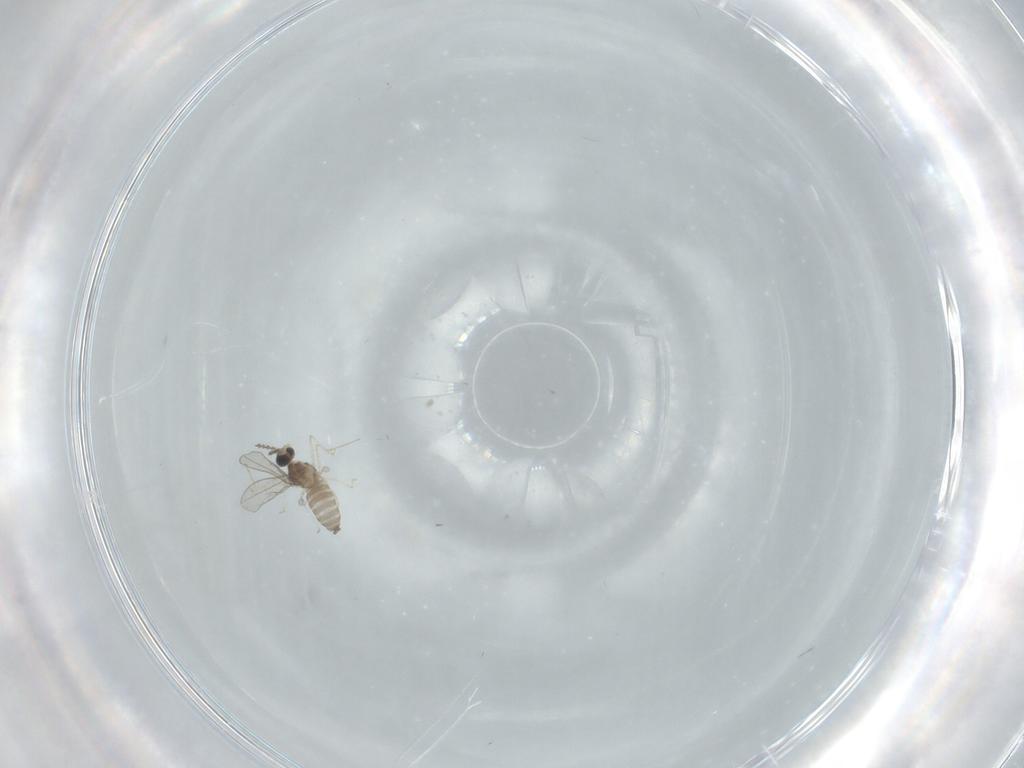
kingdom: Animalia
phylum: Arthropoda
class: Insecta
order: Diptera
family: Cecidomyiidae
